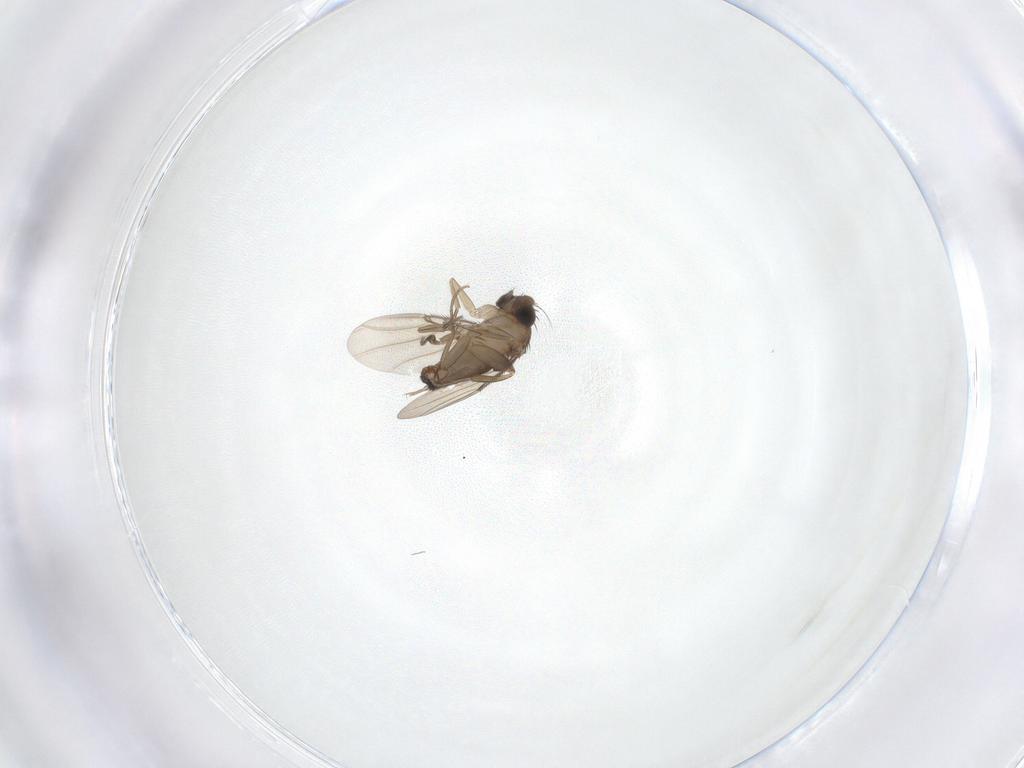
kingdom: Animalia
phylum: Arthropoda
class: Insecta
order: Diptera
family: Phoridae
